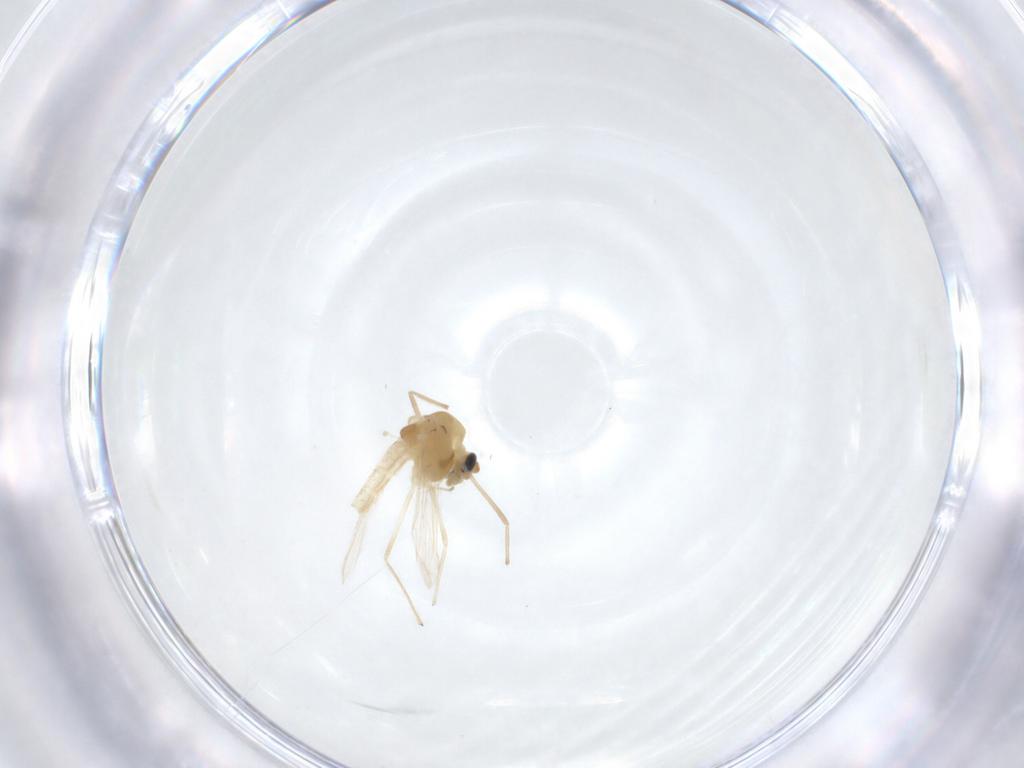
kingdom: Animalia
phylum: Arthropoda
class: Insecta
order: Diptera
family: Chironomidae
